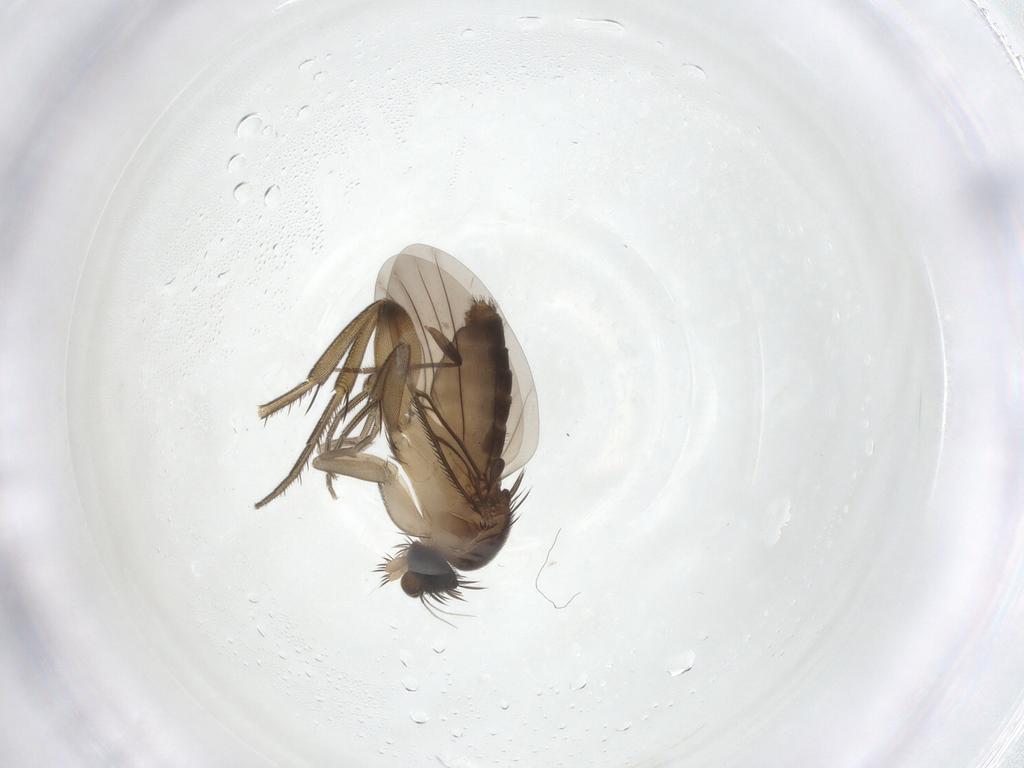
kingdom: Animalia
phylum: Arthropoda
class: Insecta
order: Diptera
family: Phoridae
